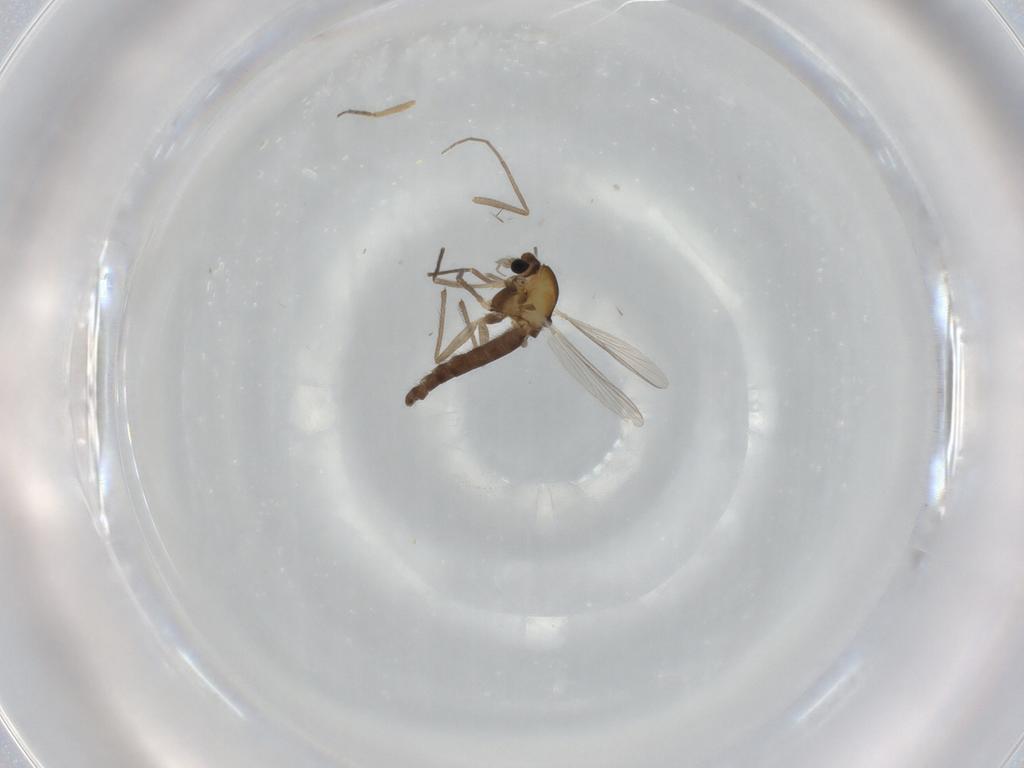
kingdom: Animalia
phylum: Arthropoda
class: Insecta
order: Diptera
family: Chironomidae
